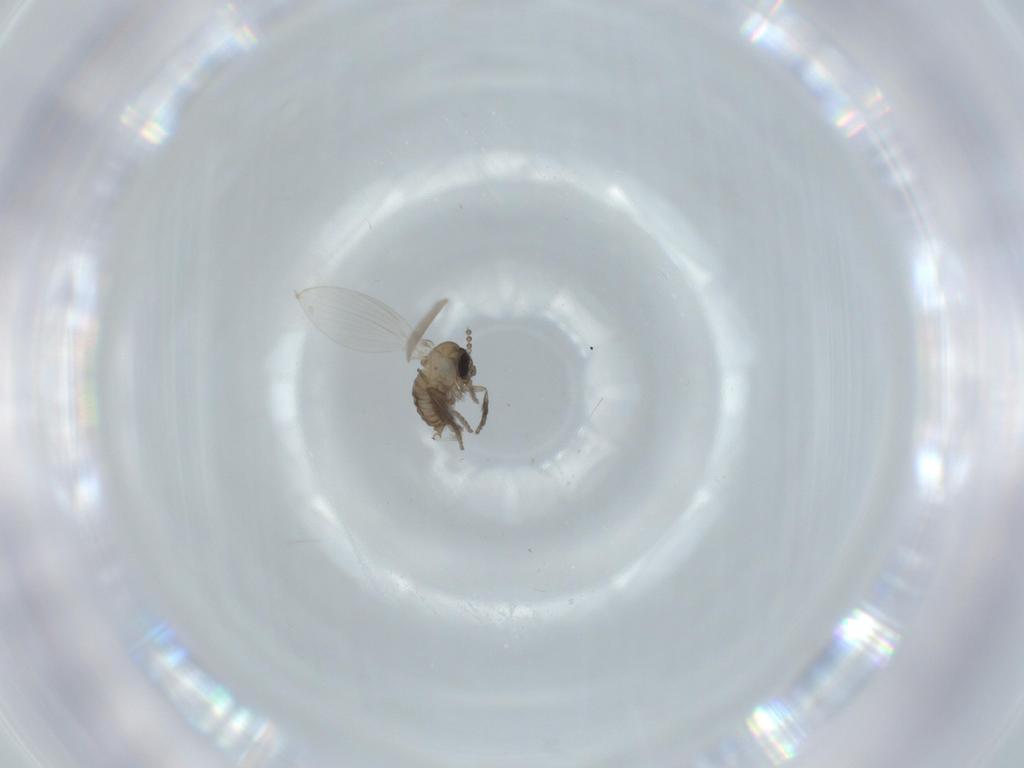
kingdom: Animalia
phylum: Arthropoda
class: Insecta
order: Diptera
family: Psychodidae
